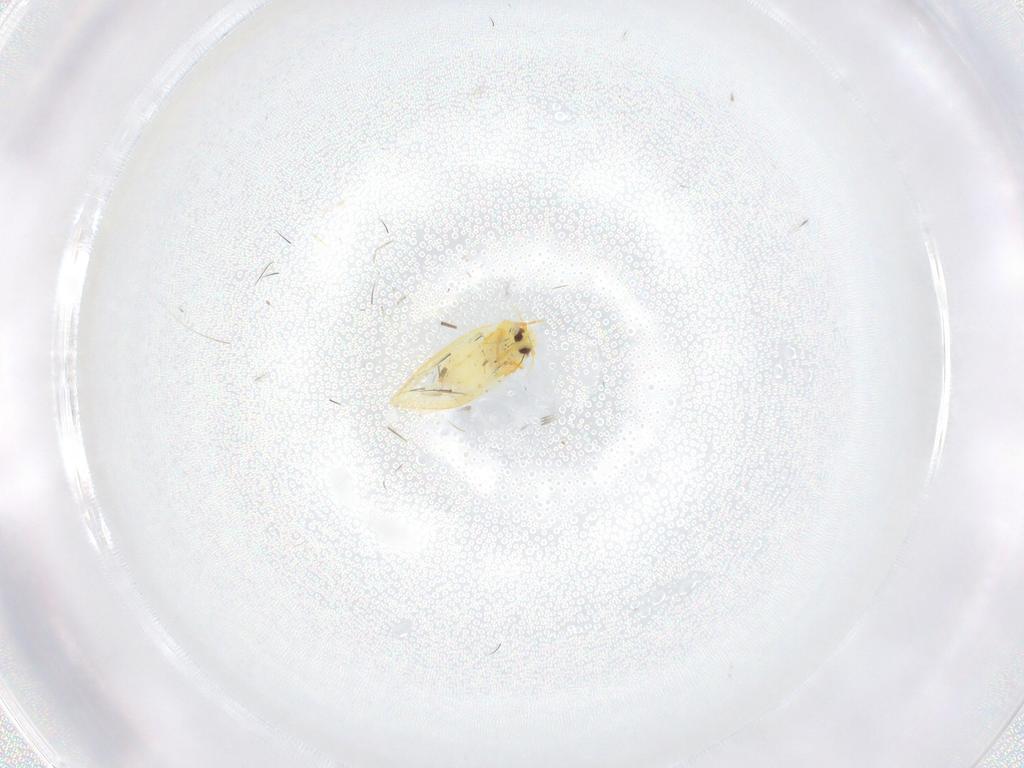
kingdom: Animalia
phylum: Arthropoda
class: Insecta
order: Hemiptera
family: Aleyrodidae
